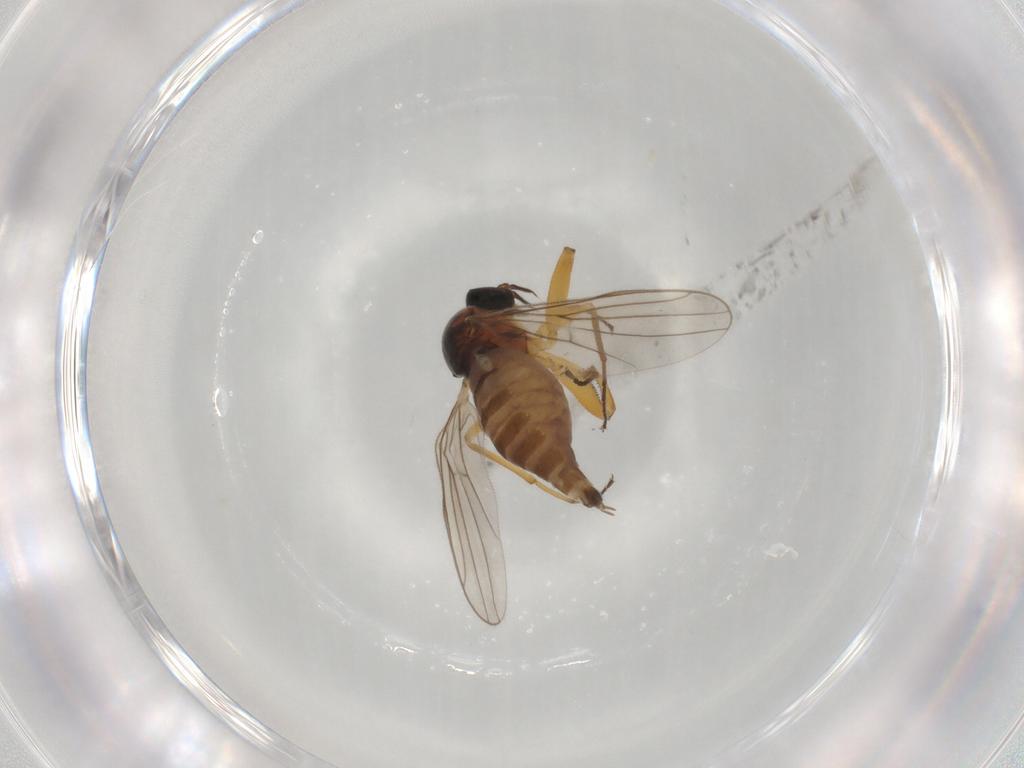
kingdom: Animalia
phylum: Arthropoda
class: Insecta
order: Diptera
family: Hybotidae
